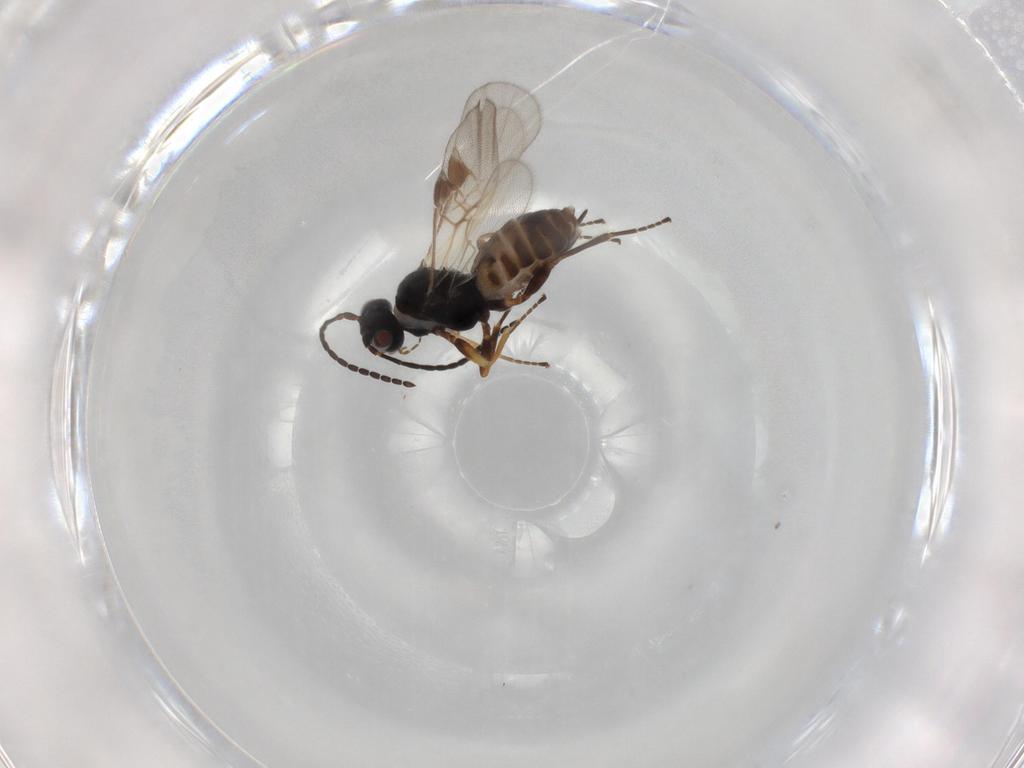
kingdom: Animalia
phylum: Arthropoda
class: Insecta
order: Hymenoptera
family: Braconidae
